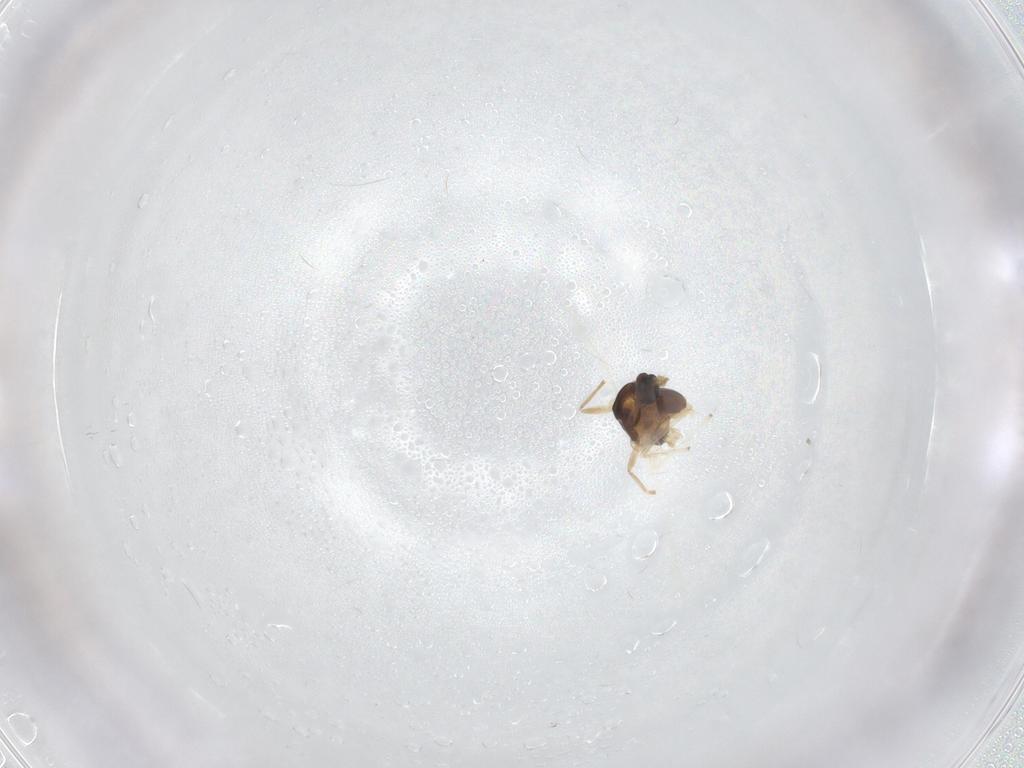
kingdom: Animalia
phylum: Arthropoda
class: Insecta
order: Diptera
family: Chironomidae
